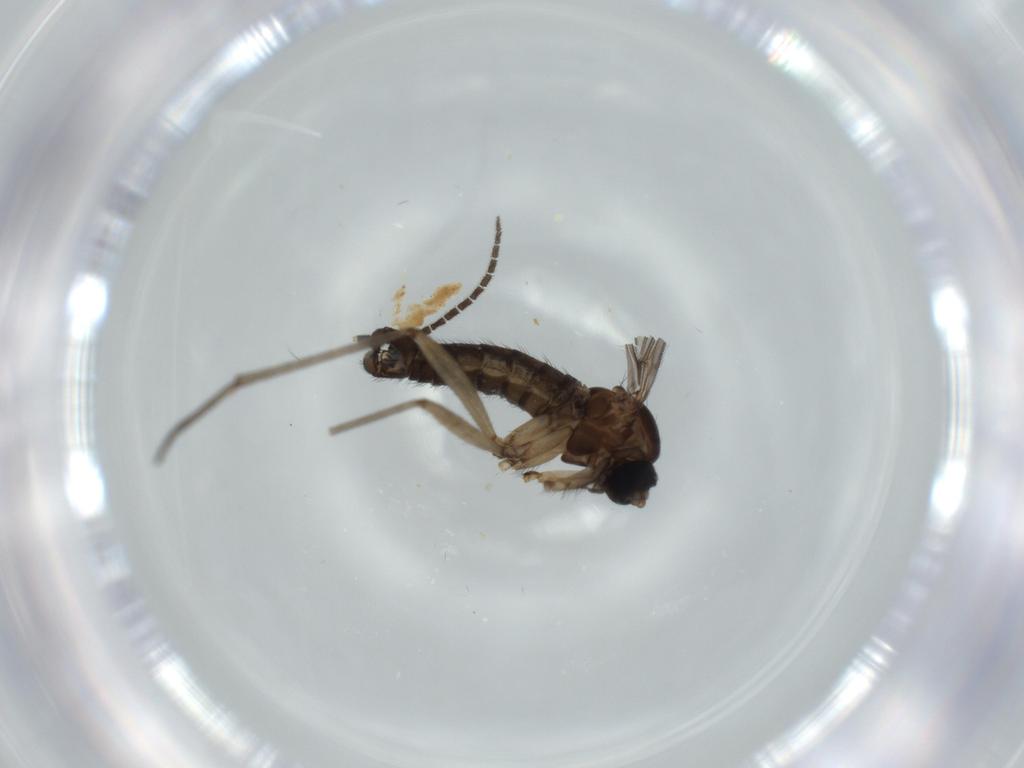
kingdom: Animalia
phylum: Arthropoda
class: Insecta
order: Diptera
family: Sciaridae
